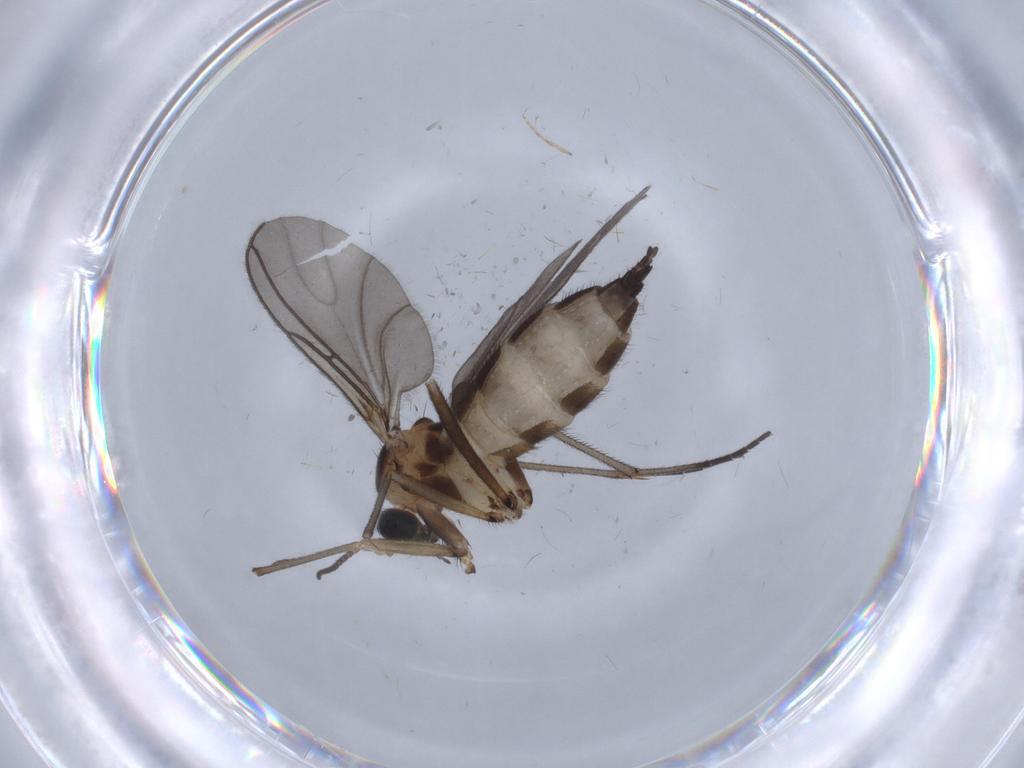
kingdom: Animalia
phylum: Arthropoda
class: Insecta
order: Diptera
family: Sciaridae
